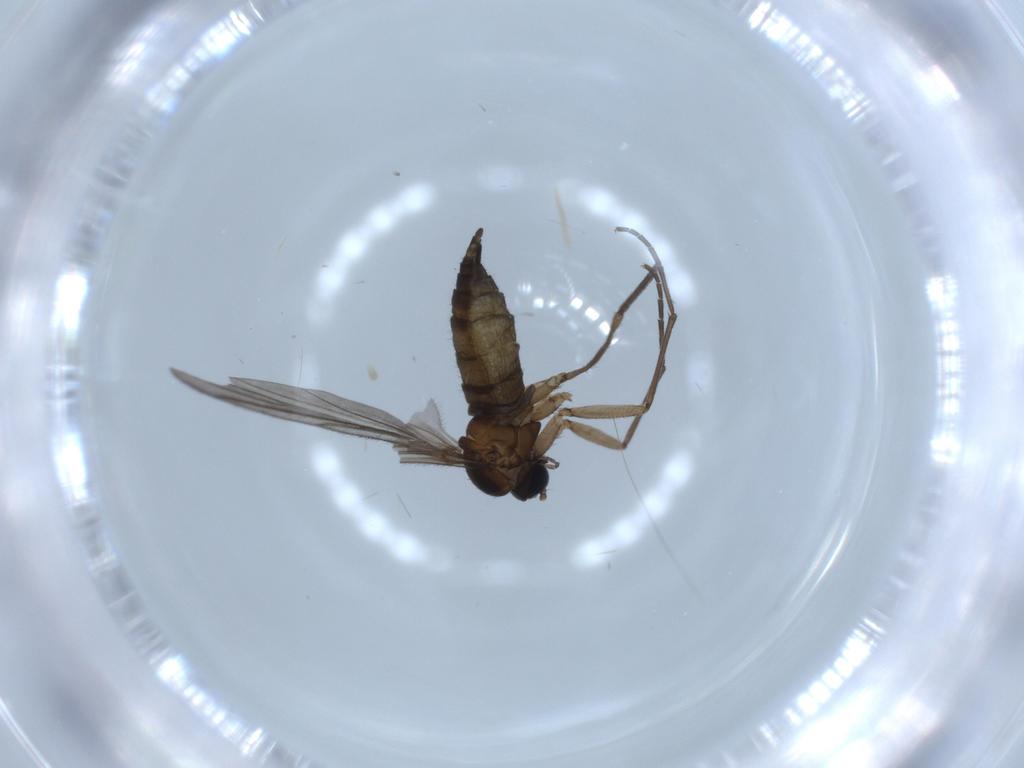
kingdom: Animalia
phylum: Arthropoda
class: Insecta
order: Diptera
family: Sciaridae
